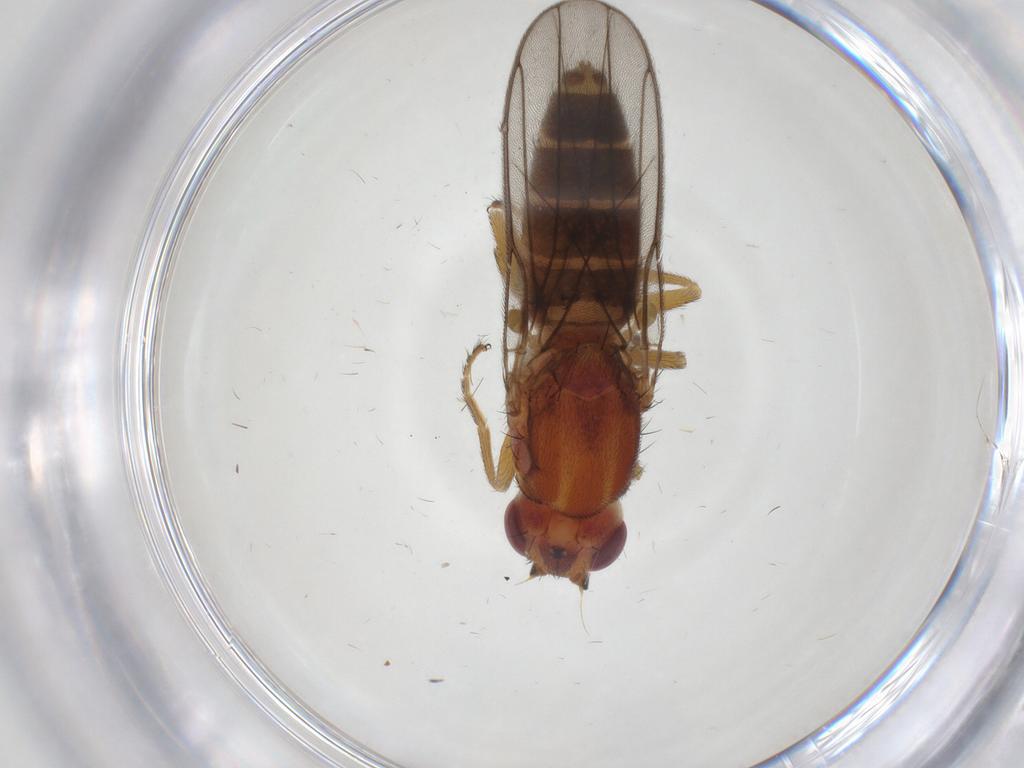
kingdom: Animalia
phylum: Arthropoda
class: Insecta
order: Diptera
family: Chloropidae
